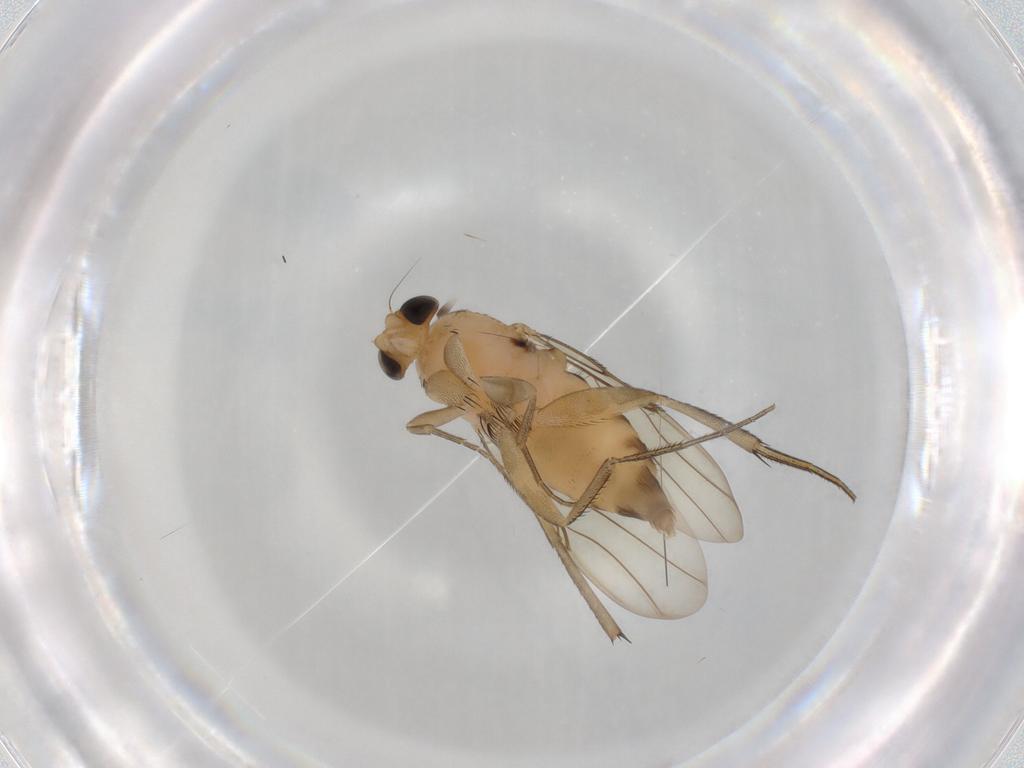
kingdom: Animalia
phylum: Arthropoda
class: Insecta
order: Diptera
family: Phoridae
